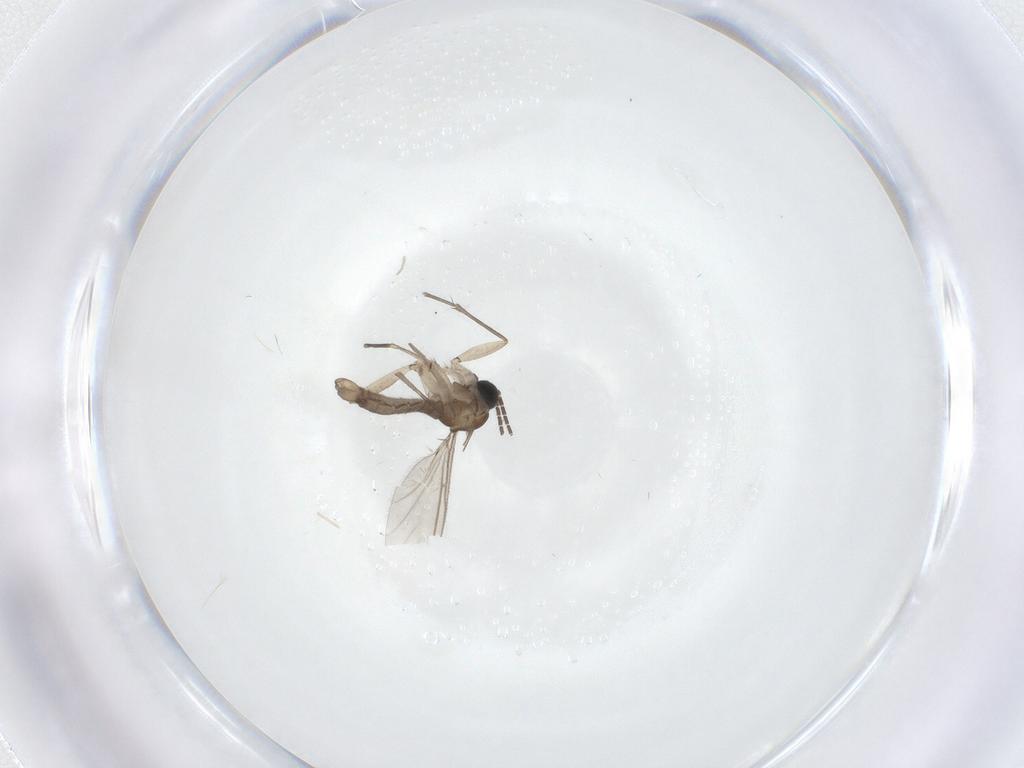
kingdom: Animalia
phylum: Arthropoda
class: Insecta
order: Diptera
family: Sciaridae
